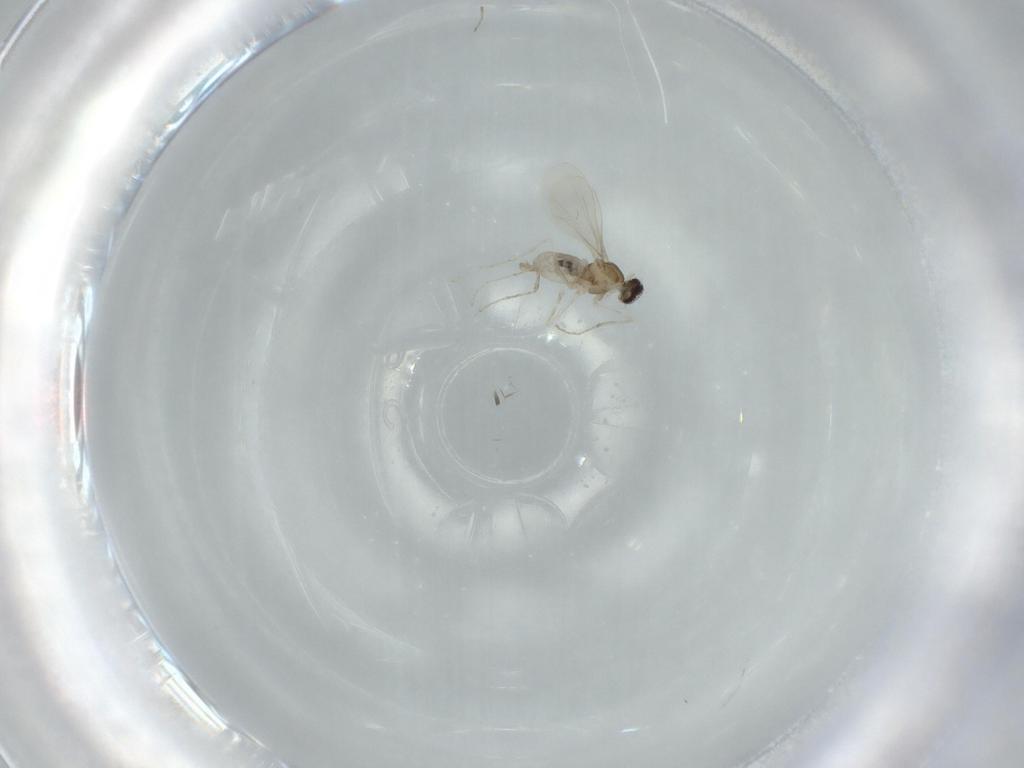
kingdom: Animalia
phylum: Arthropoda
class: Insecta
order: Diptera
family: Cecidomyiidae
